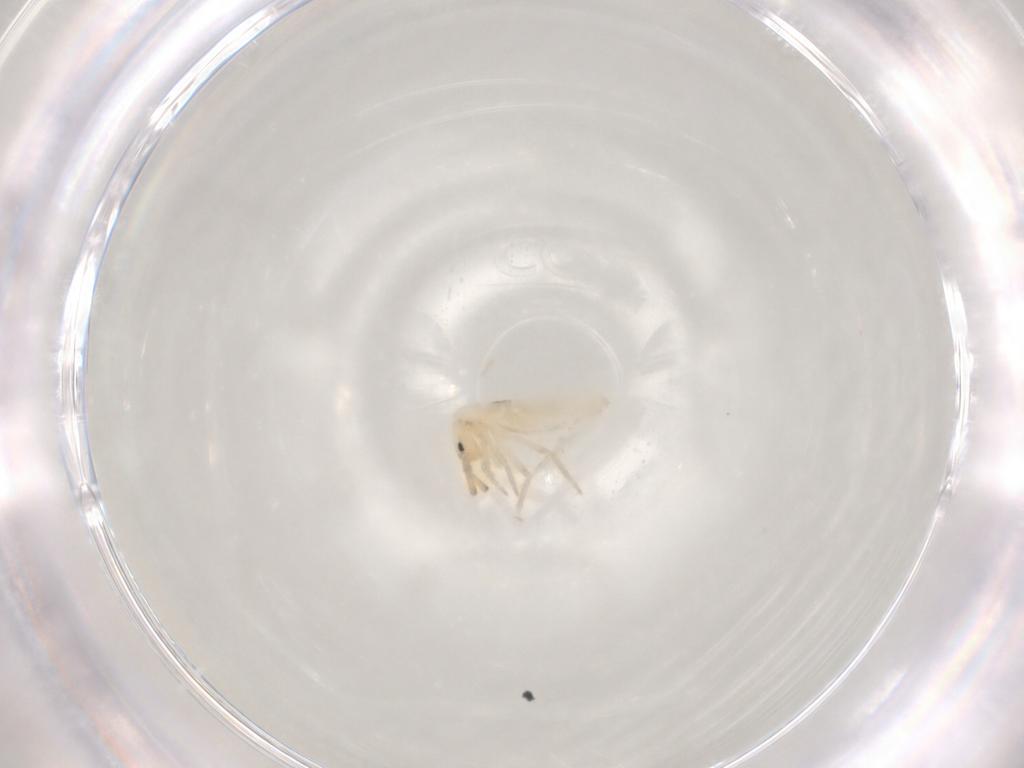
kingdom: Animalia
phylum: Arthropoda
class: Collembola
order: Entomobryomorpha
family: Entomobryidae
